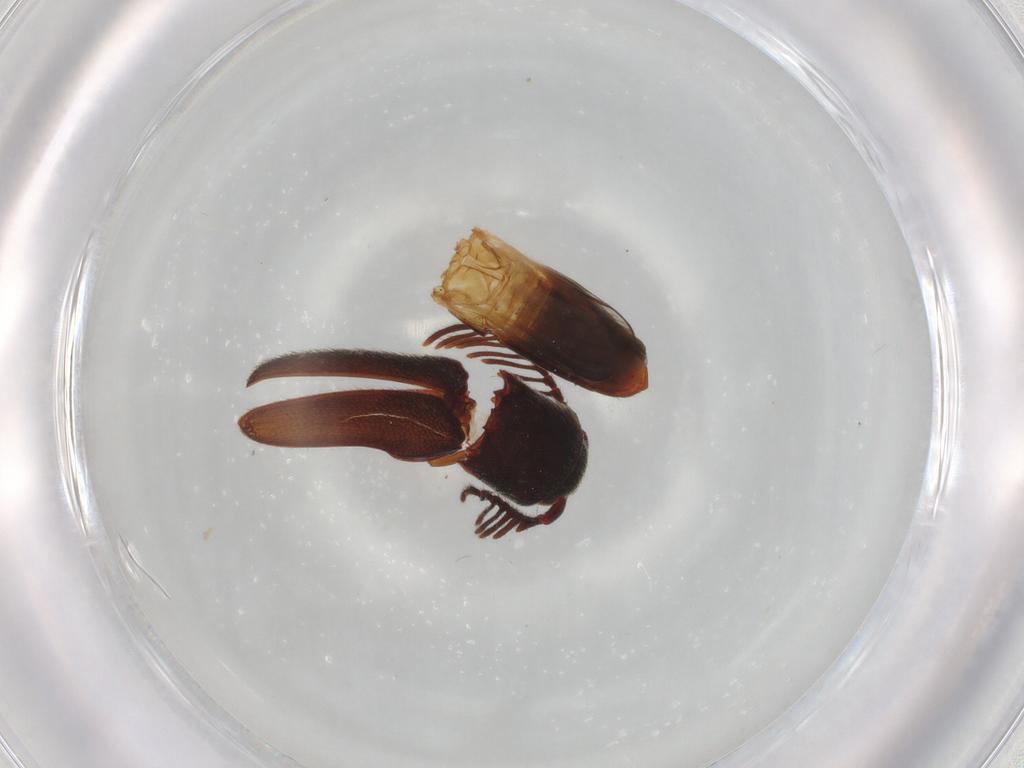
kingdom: Animalia
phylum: Arthropoda
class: Insecta
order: Coleoptera
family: Eucnemidae
